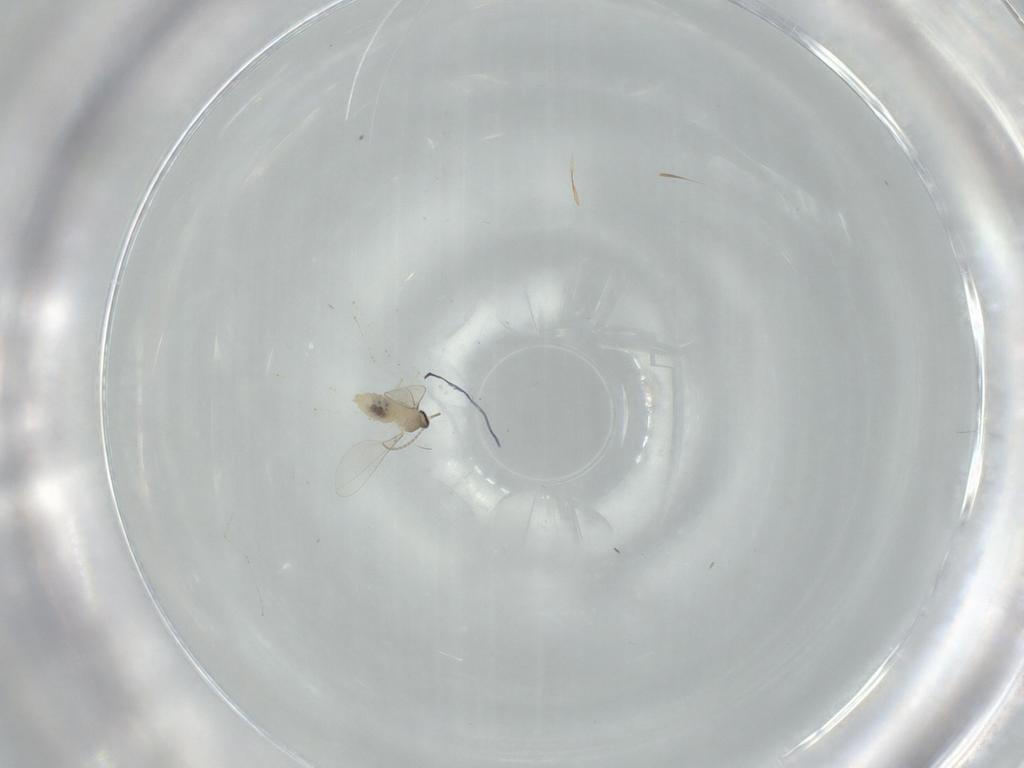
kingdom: Animalia
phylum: Arthropoda
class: Insecta
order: Diptera
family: Cecidomyiidae
